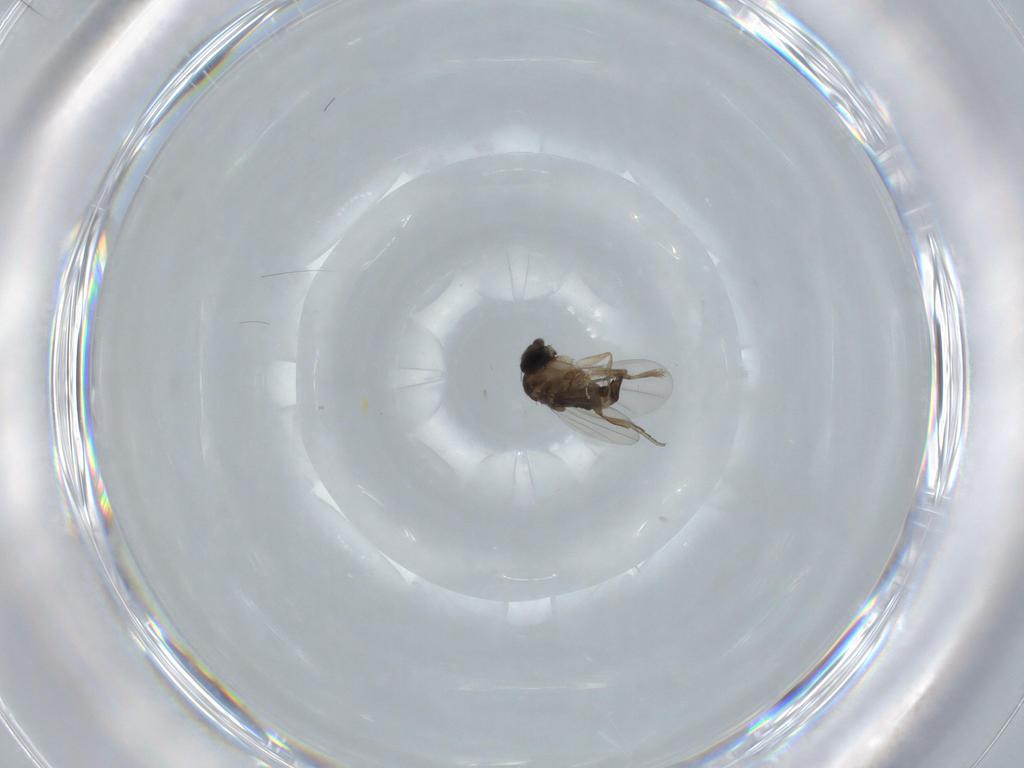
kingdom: Animalia
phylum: Arthropoda
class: Insecta
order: Diptera
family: Phoridae
